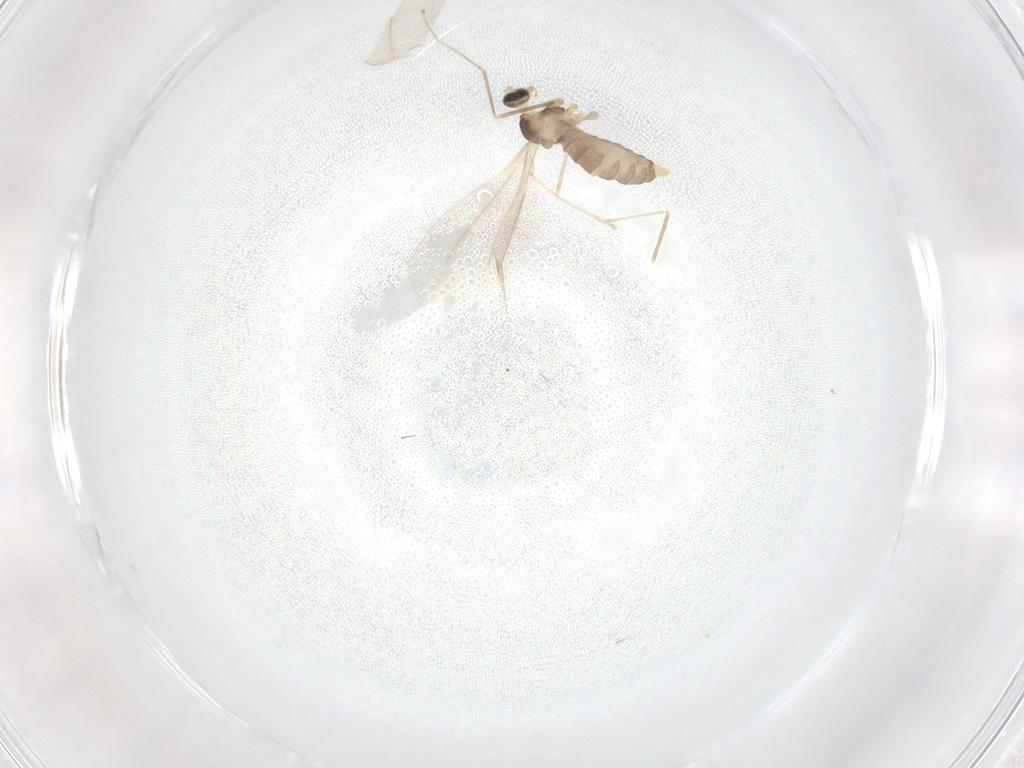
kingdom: Animalia
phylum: Arthropoda
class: Insecta
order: Diptera
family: Cecidomyiidae
